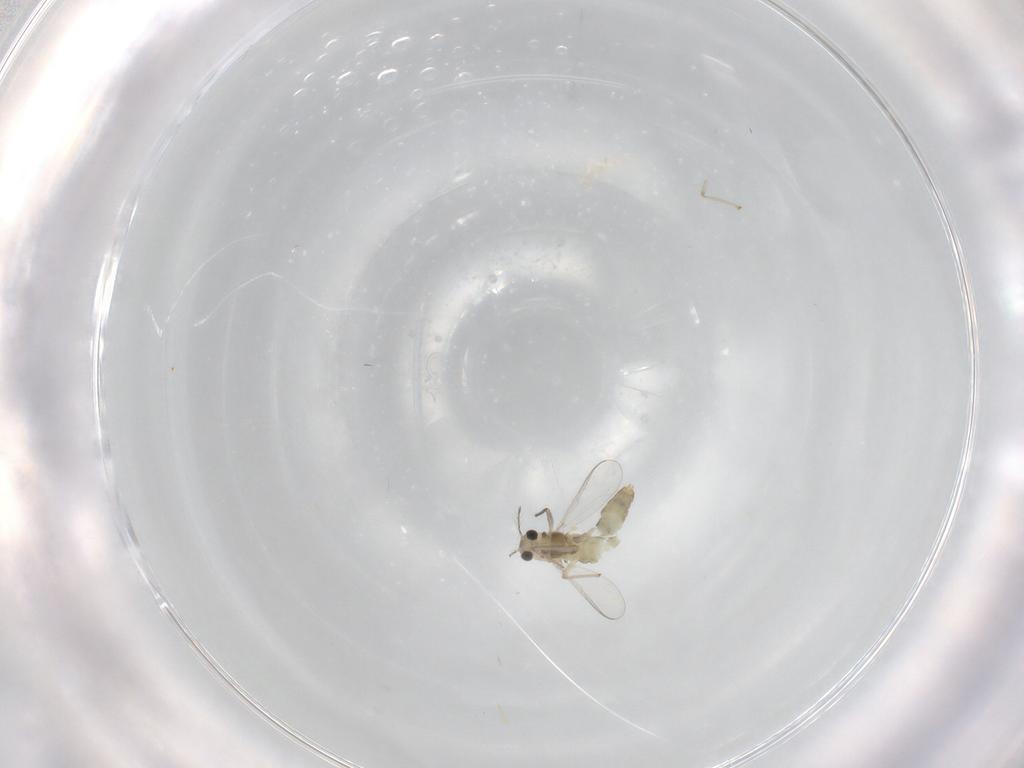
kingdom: Animalia
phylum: Arthropoda
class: Insecta
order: Diptera
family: Chironomidae
